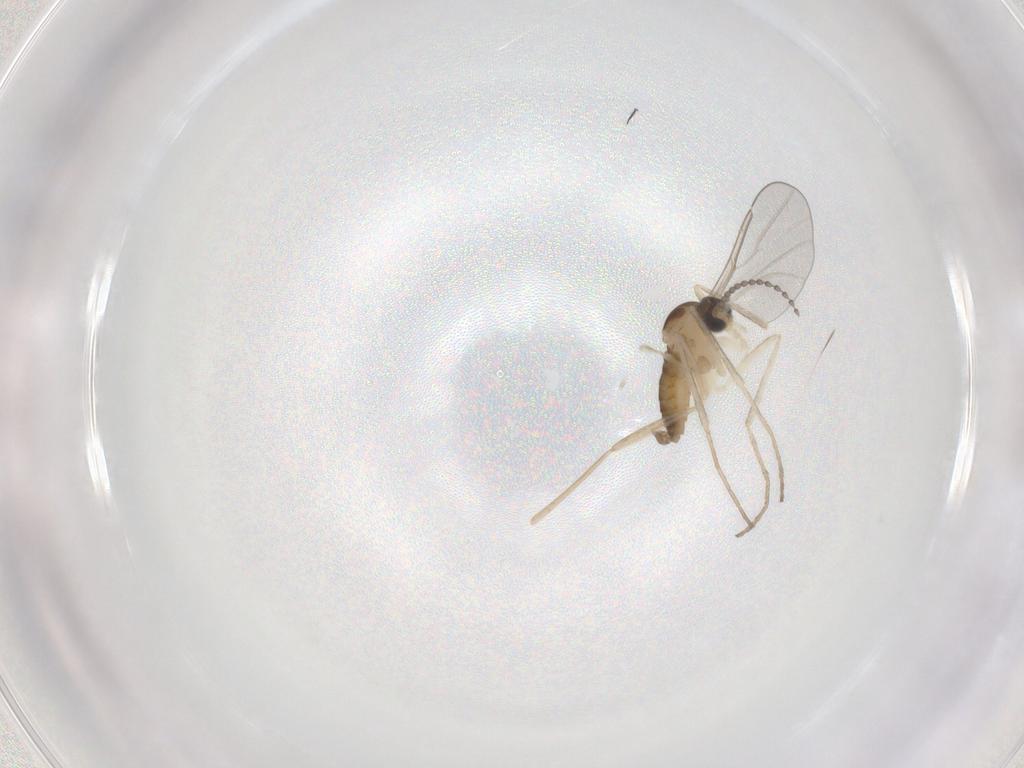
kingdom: Animalia
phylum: Arthropoda
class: Insecta
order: Diptera
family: Cecidomyiidae
